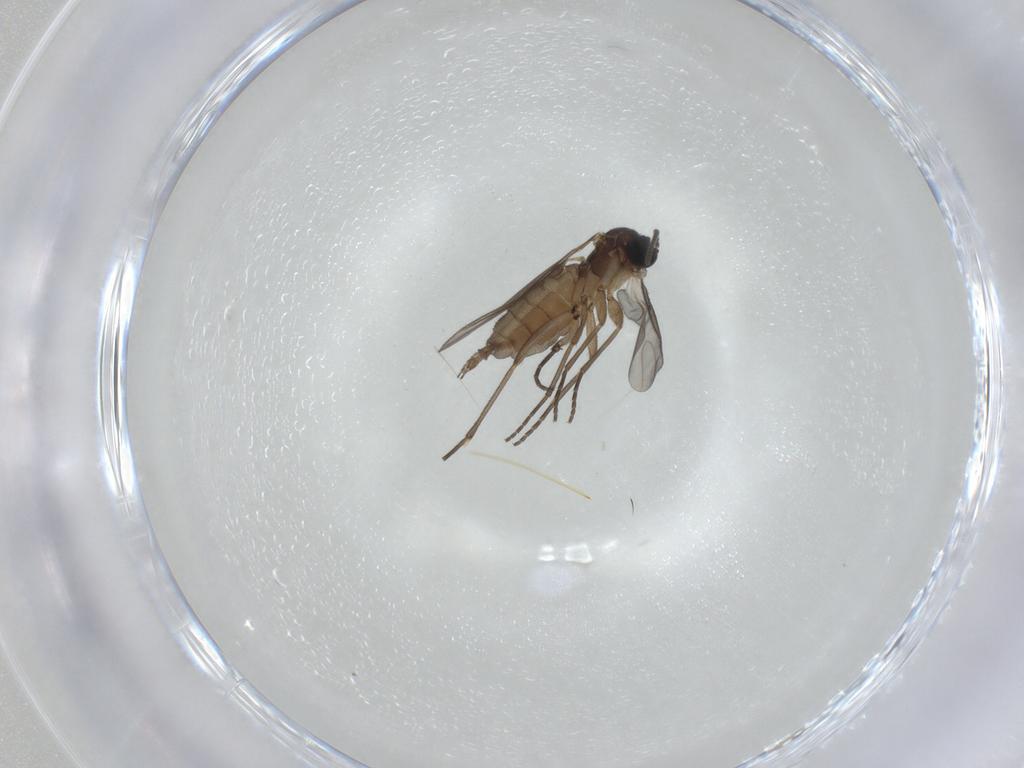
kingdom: Animalia
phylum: Arthropoda
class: Insecta
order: Diptera
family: Sciaridae
